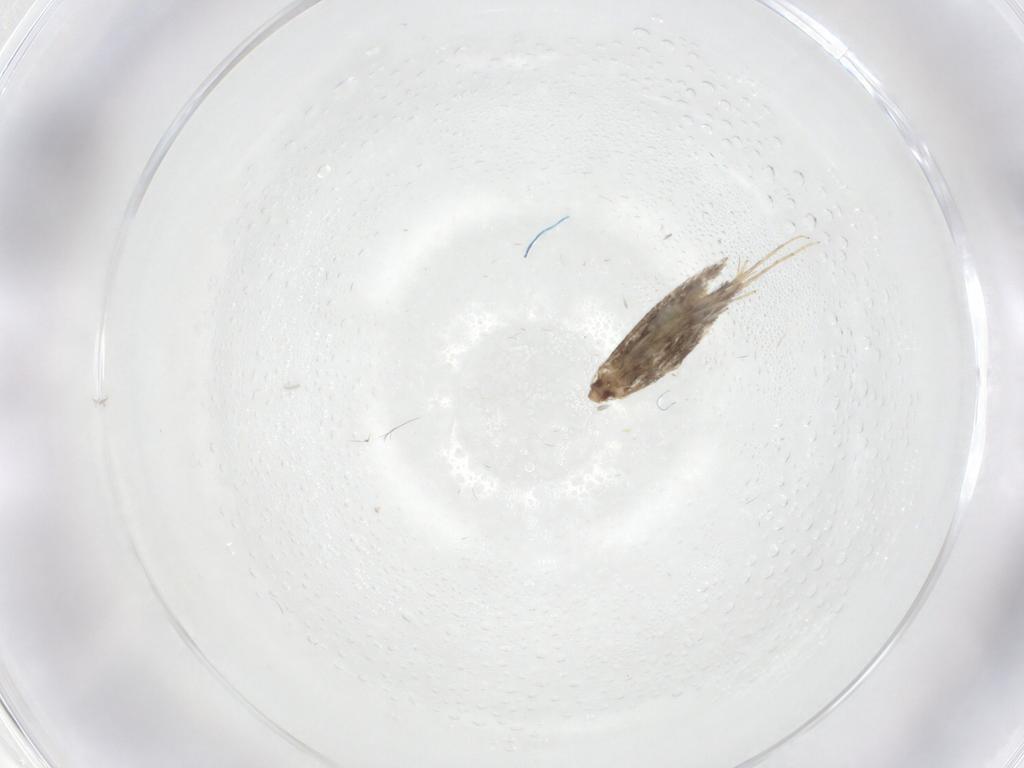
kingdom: Animalia
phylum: Arthropoda
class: Insecta
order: Lepidoptera
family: Gracillariidae
